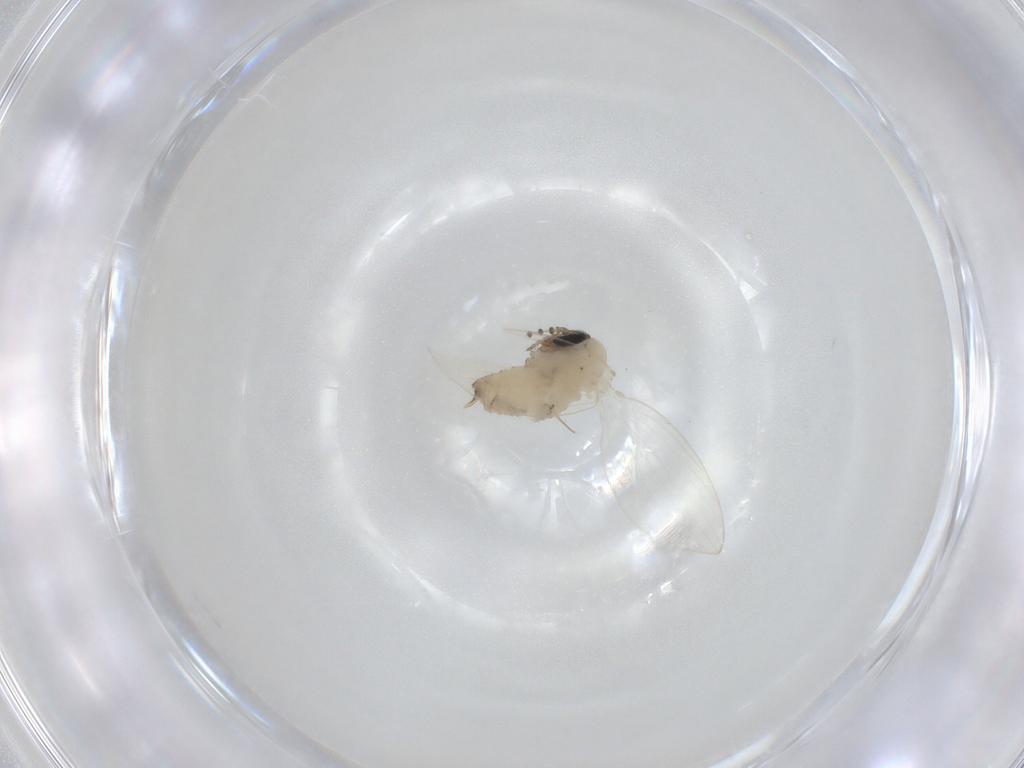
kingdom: Animalia
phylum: Arthropoda
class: Insecta
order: Diptera
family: Psychodidae
